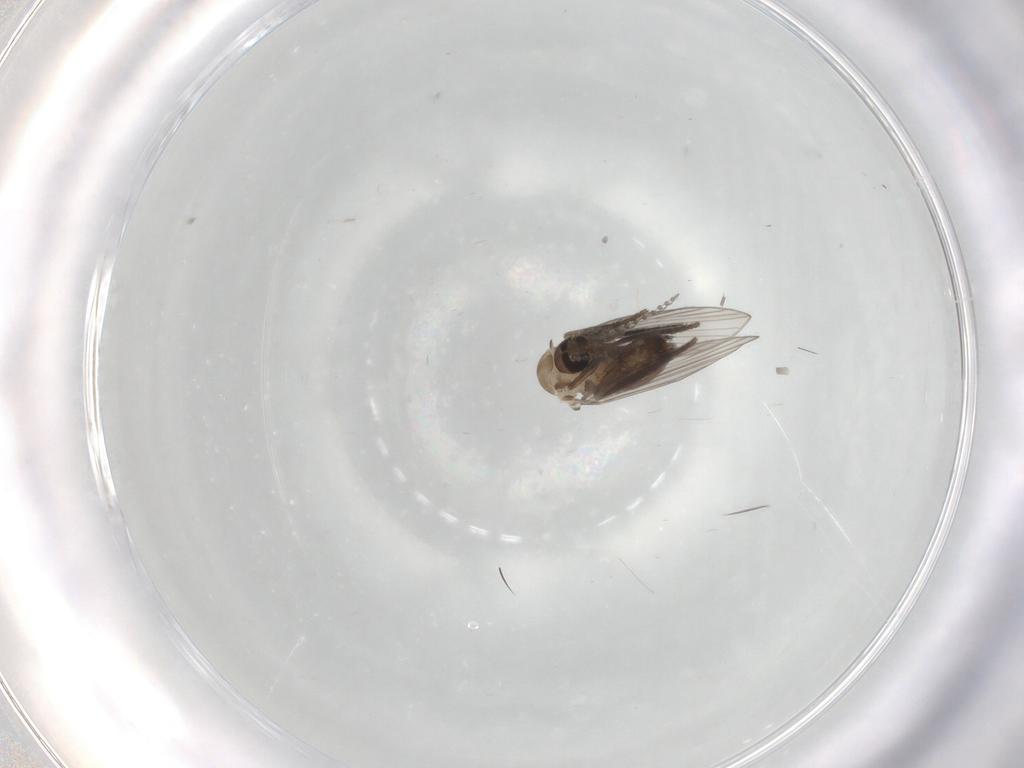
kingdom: Animalia
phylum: Arthropoda
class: Insecta
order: Diptera
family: Psychodidae
